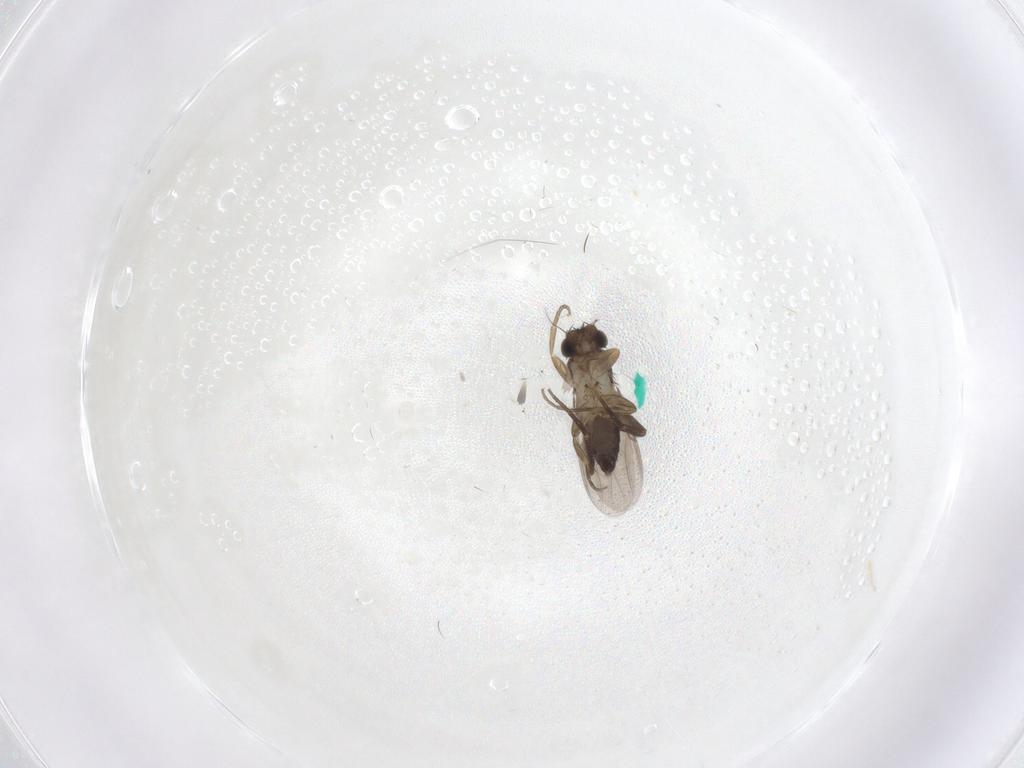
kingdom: Animalia
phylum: Arthropoda
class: Insecta
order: Diptera
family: Phoridae
